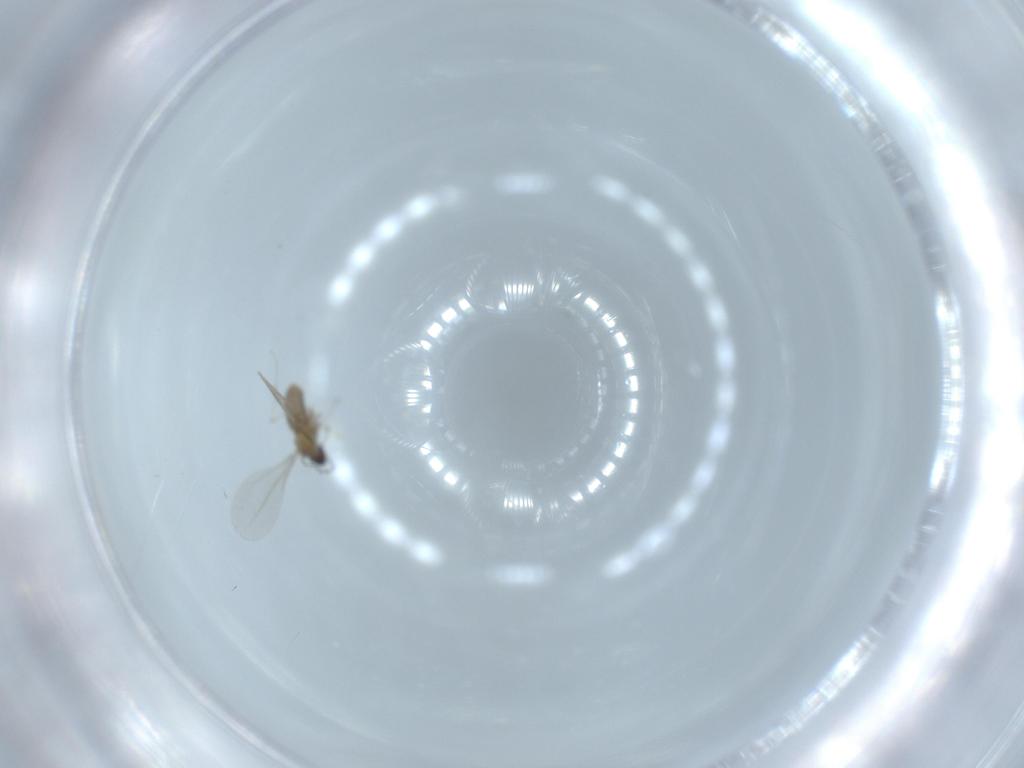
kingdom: Animalia
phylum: Arthropoda
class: Insecta
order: Diptera
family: Cecidomyiidae
